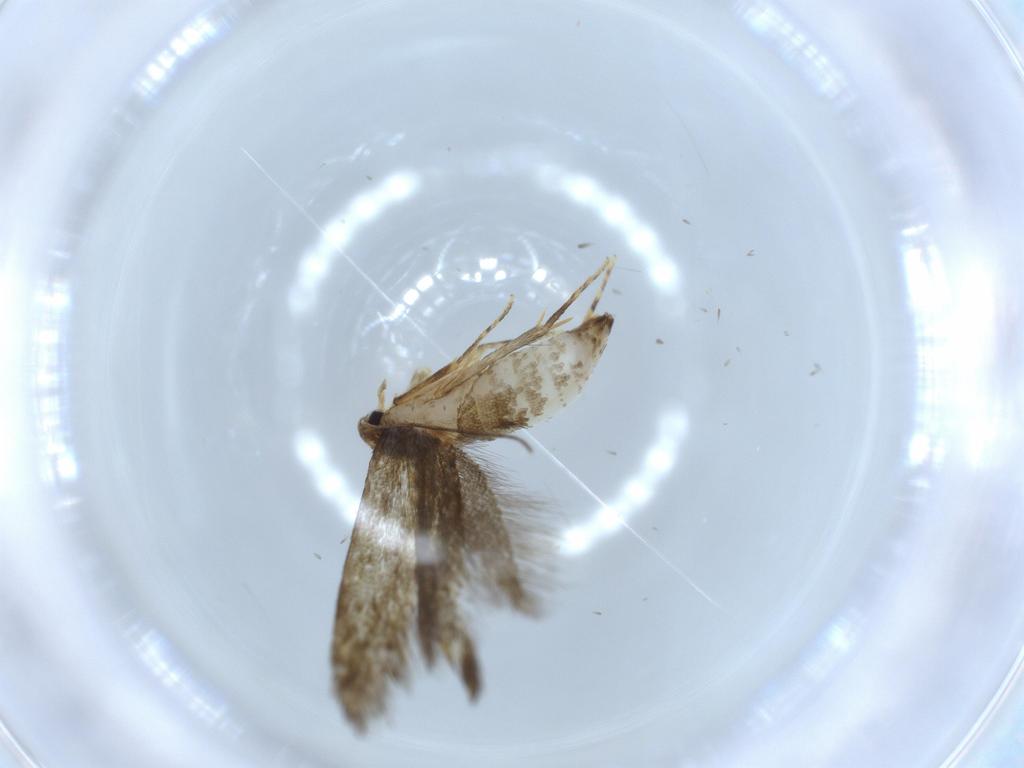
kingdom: Animalia
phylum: Arthropoda
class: Insecta
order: Lepidoptera
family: Tineidae
